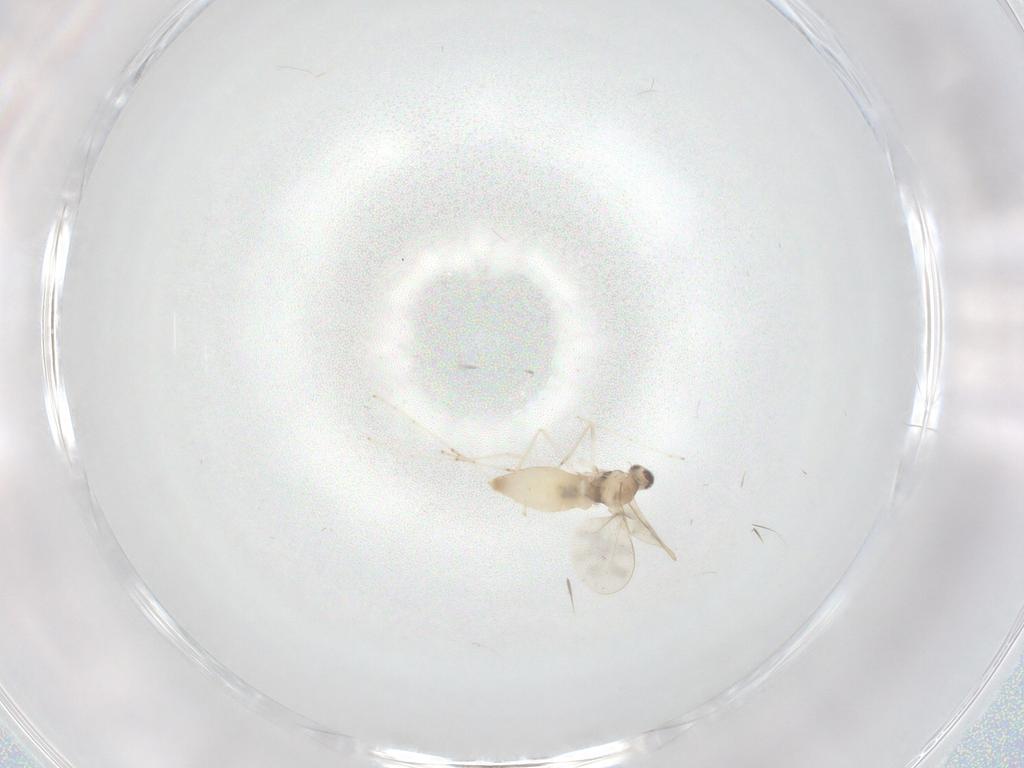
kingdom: Animalia
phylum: Arthropoda
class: Insecta
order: Diptera
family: Cecidomyiidae
